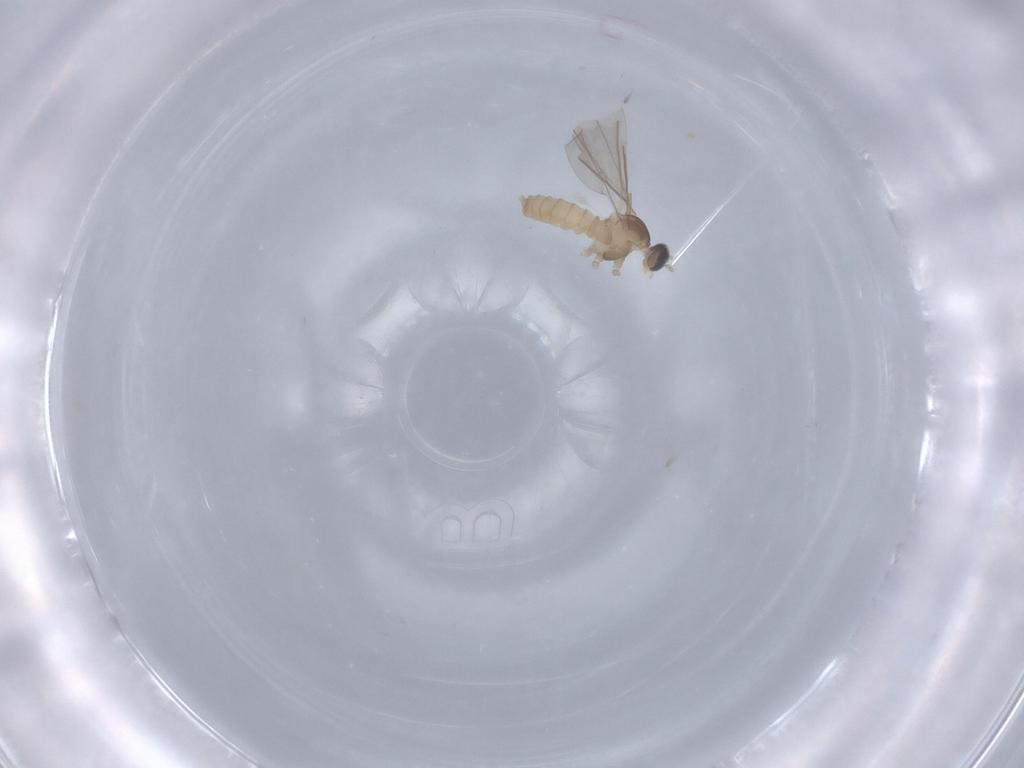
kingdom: Animalia
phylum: Arthropoda
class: Insecta
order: Diptera
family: Cecidomyiidae
